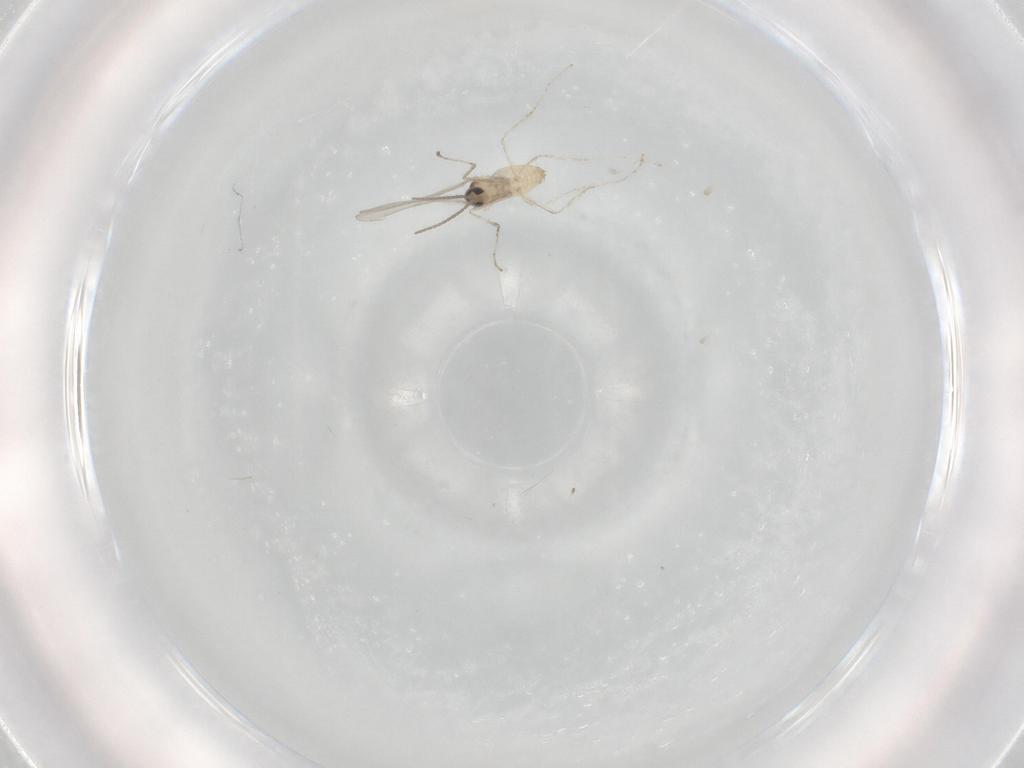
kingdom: Animalia
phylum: Arthropoda
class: Insecta
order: Diptera
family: Cecidomyiidae
